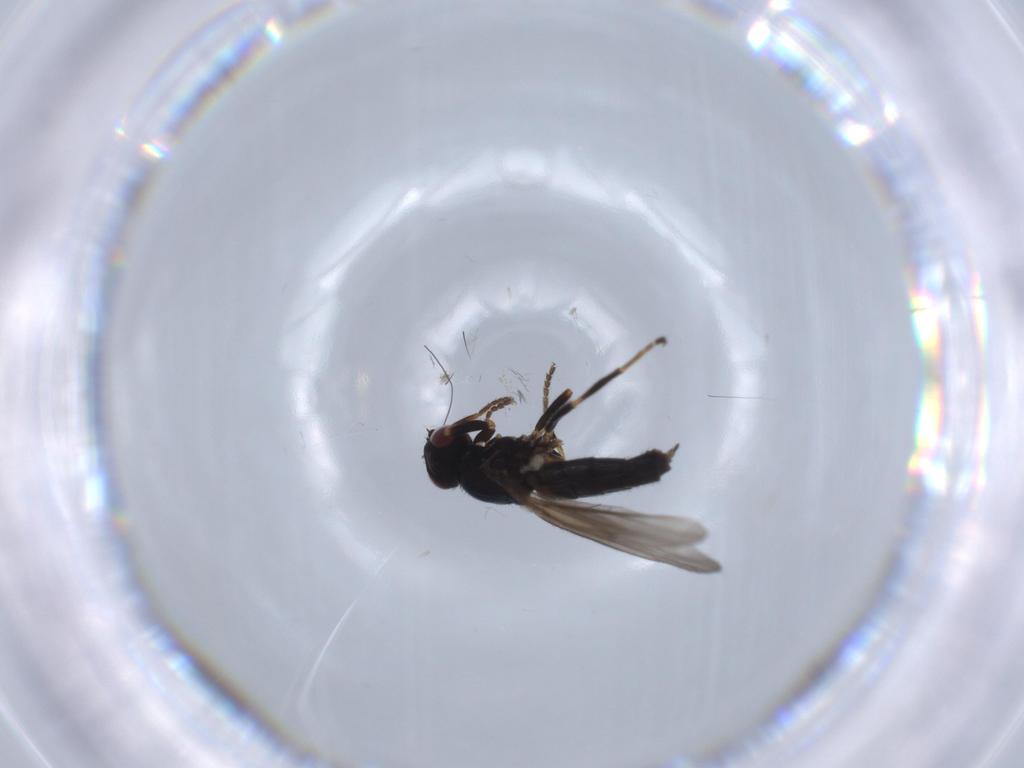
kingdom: Animalia
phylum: Arthropoda
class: Insecta
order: Diptera
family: Chloropidae
